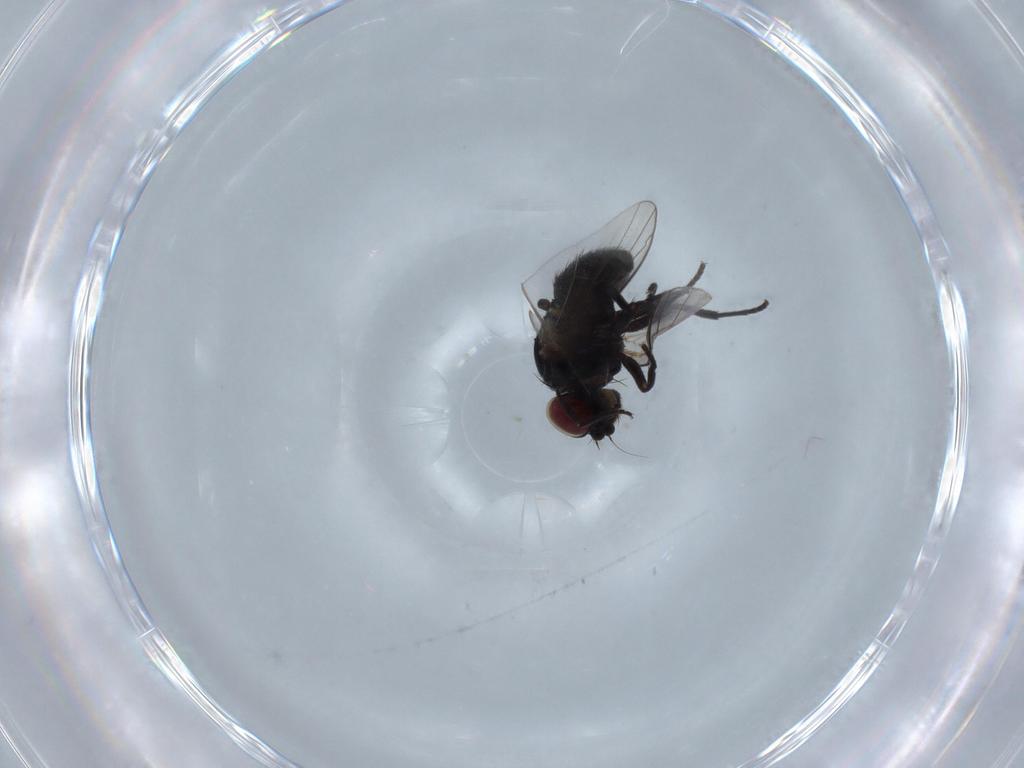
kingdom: Animalia
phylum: Arthropoda
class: Insecta
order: Diptera
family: Agromyzidae
